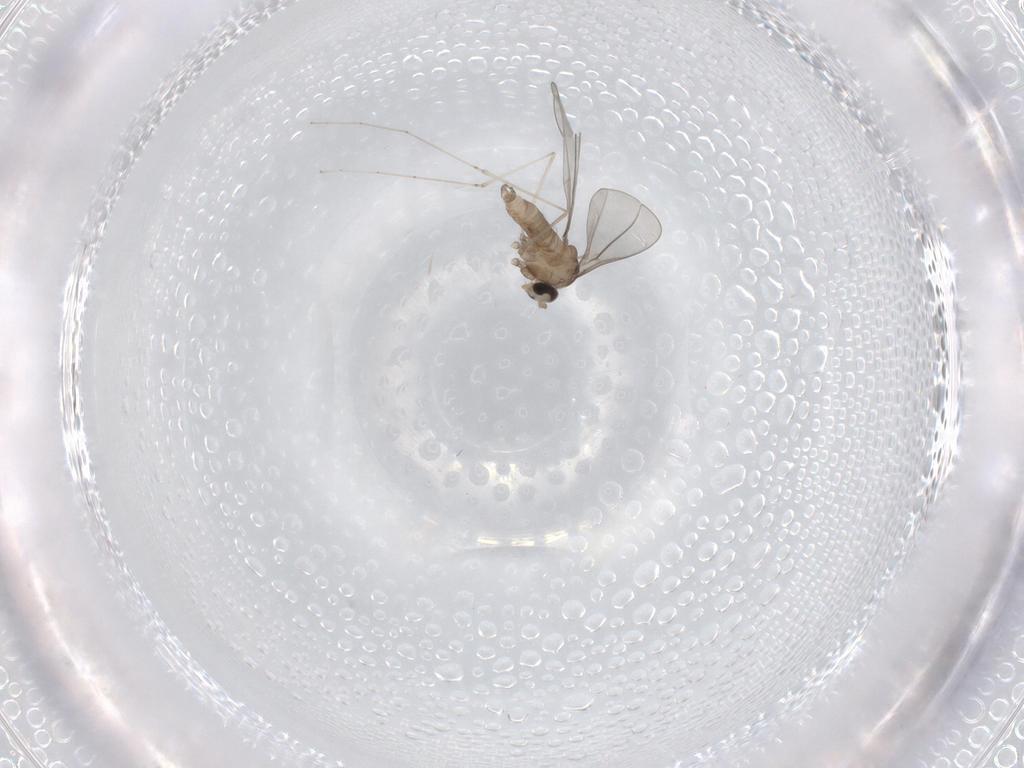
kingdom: Animalia
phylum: Arthropoda
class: Insecta
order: Diptera
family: Cecidomyiidae
